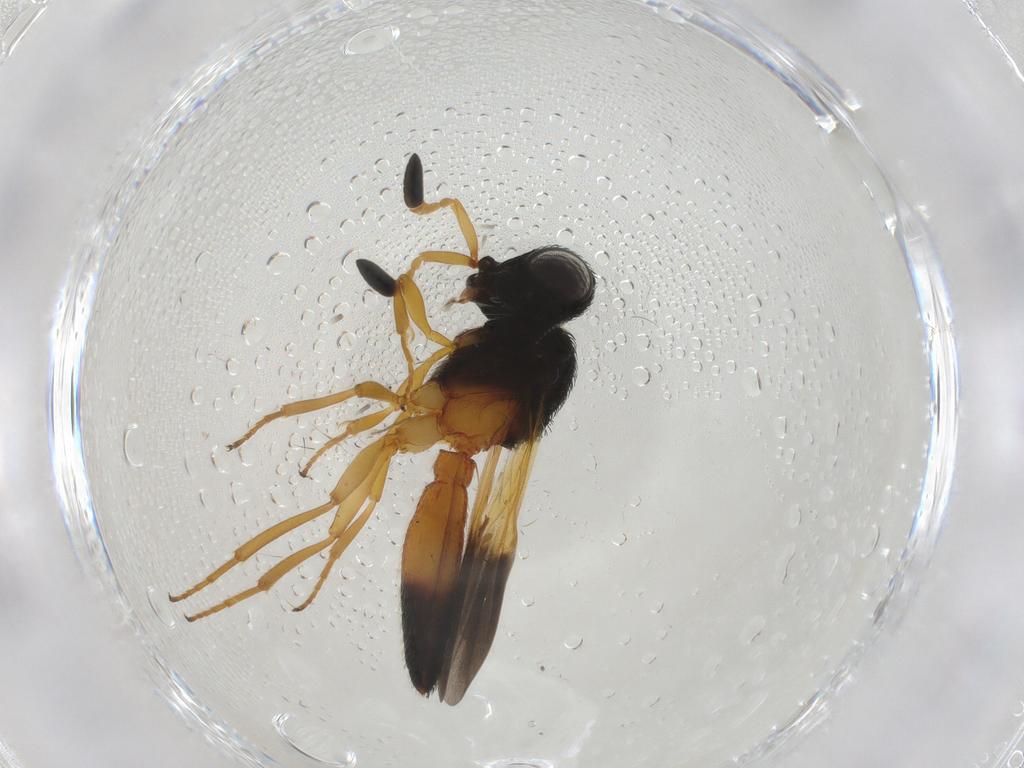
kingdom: Animalia
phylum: Arthropoda
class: Insecta
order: Hymenoptera
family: Scelionidae
